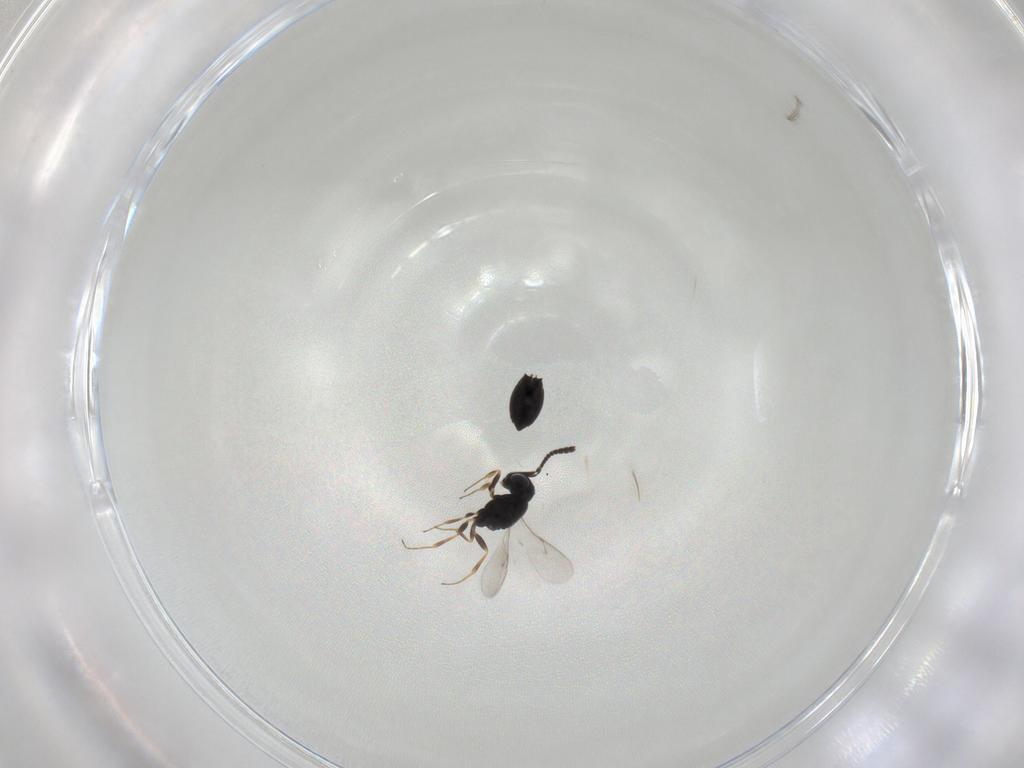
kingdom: Animalia
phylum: Arthropoda
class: Insecta
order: Hymenoptera
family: Scelionidae
